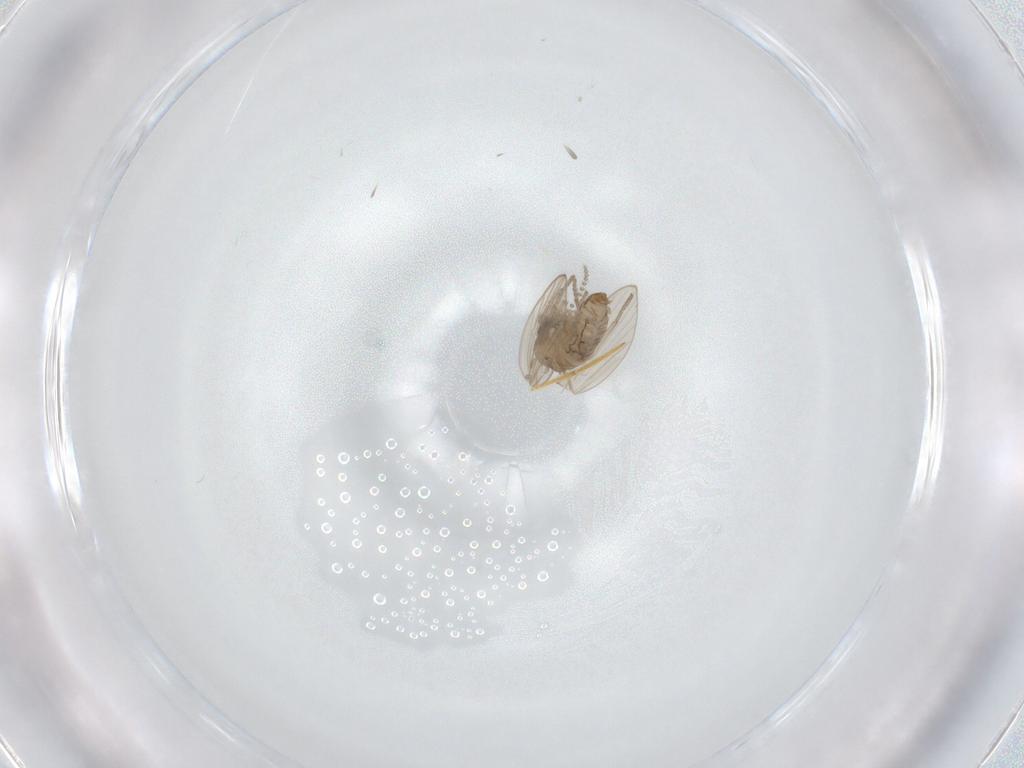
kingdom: Animalia
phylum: Arthropoda
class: Insecta
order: Diptera
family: Psychodidae
